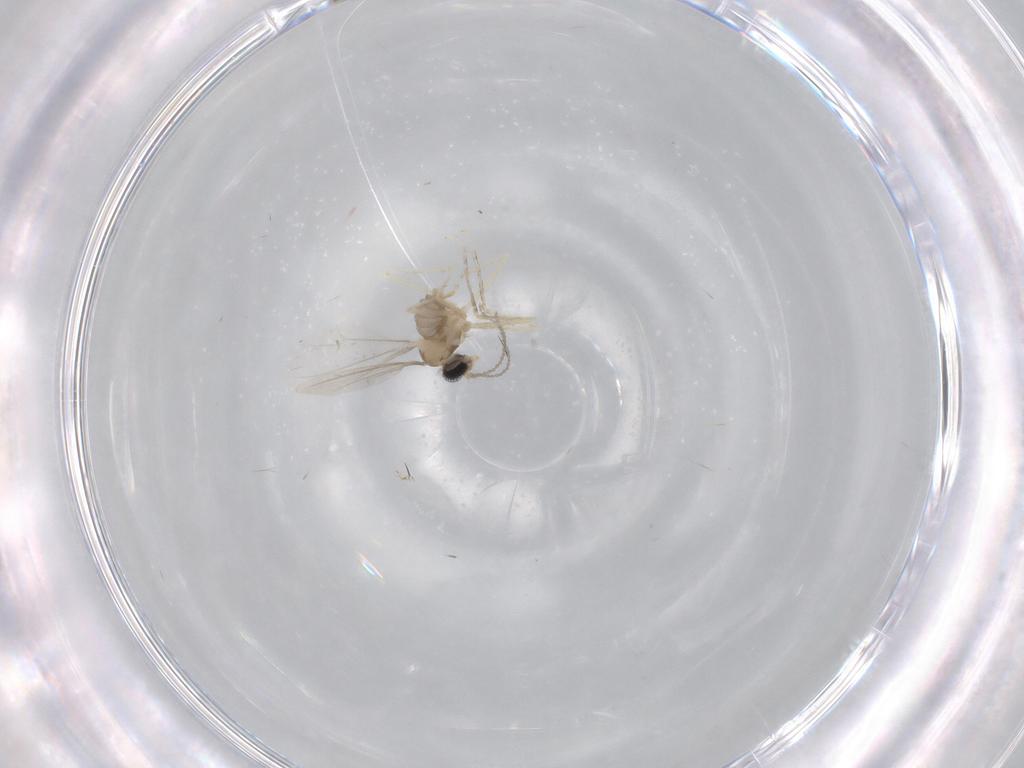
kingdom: Animalia
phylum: Arthropoda
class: Insecta
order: Diptera
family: Heleomyzidae
